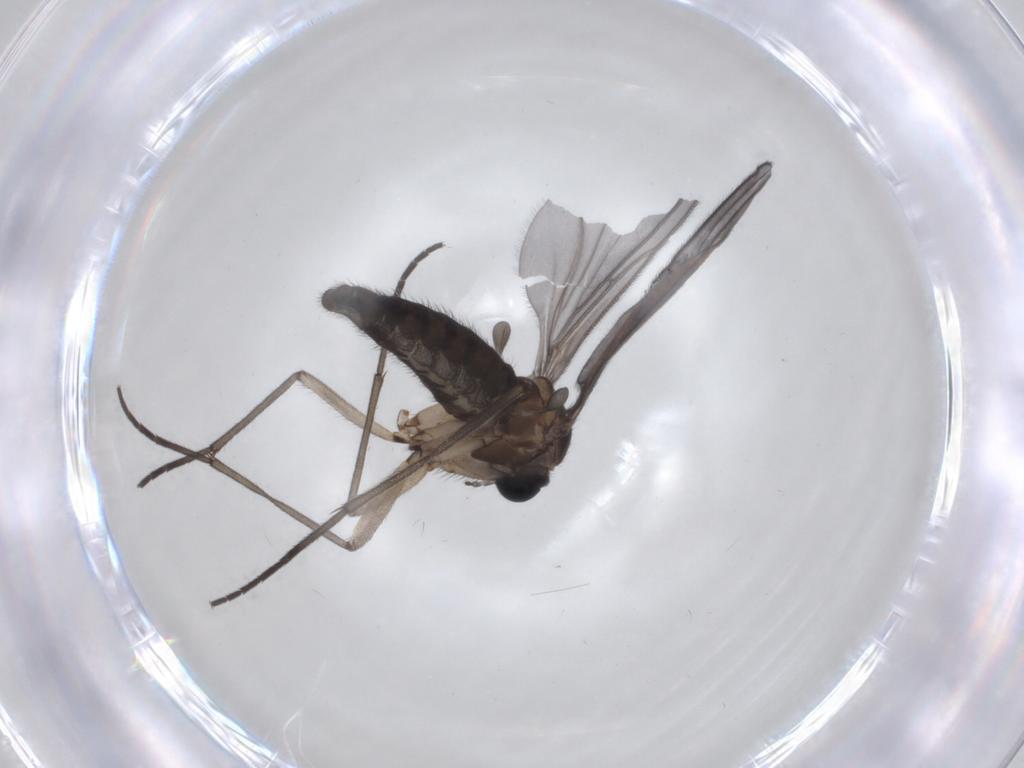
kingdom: Animalia
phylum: Arthropoda
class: Insecta
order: Diptera
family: Sciaridae
